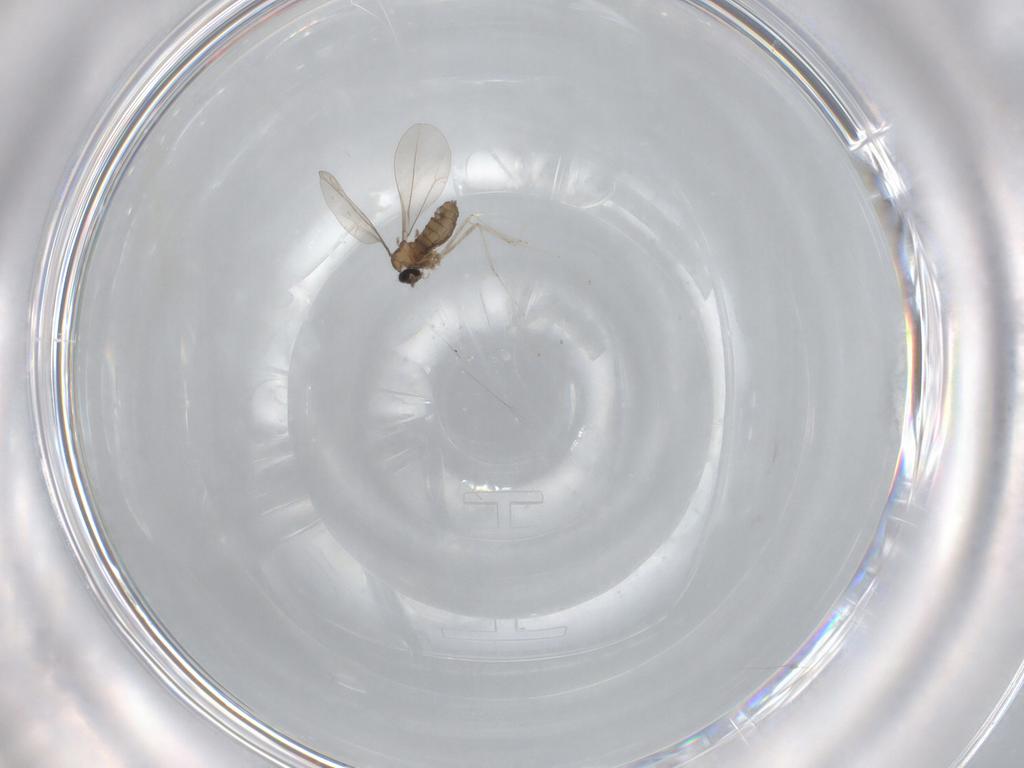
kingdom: Animalia
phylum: Arthropoda
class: Insecta
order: Diptera
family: Cecidomyiidae
